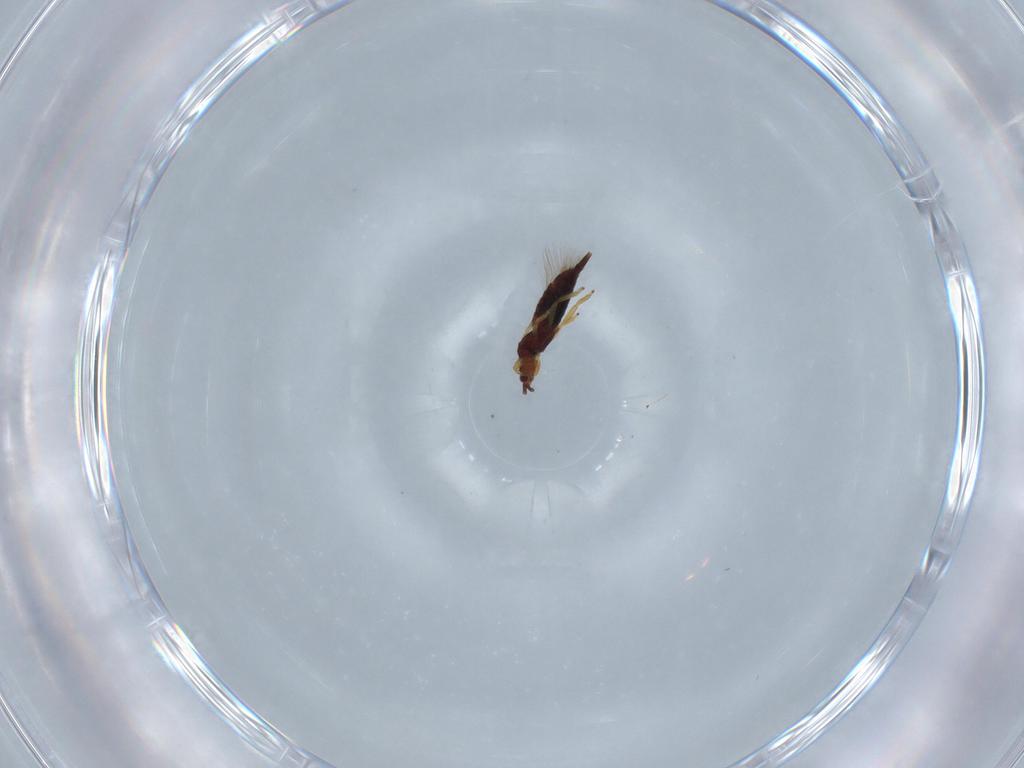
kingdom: Animalia
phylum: Arthropoda
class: Insecta
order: Thysanoptera
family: Phlaeothripidae
